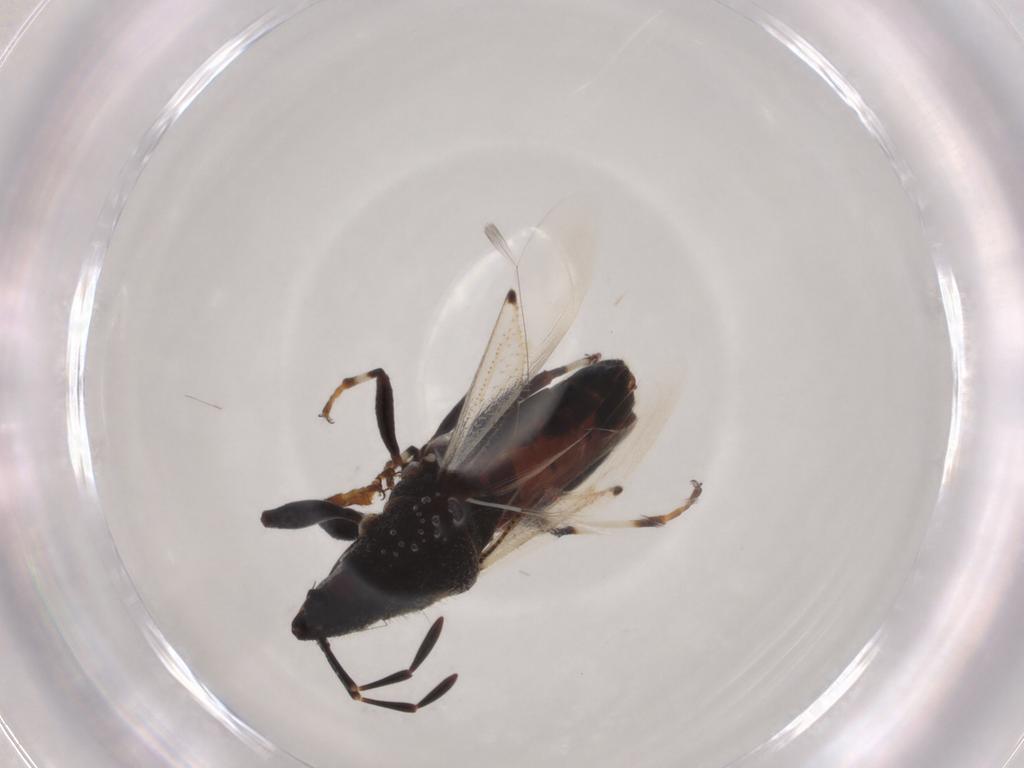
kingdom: Animalia
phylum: Arthropoda
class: Insecta
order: Hemiptera
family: Oxycarenidae
